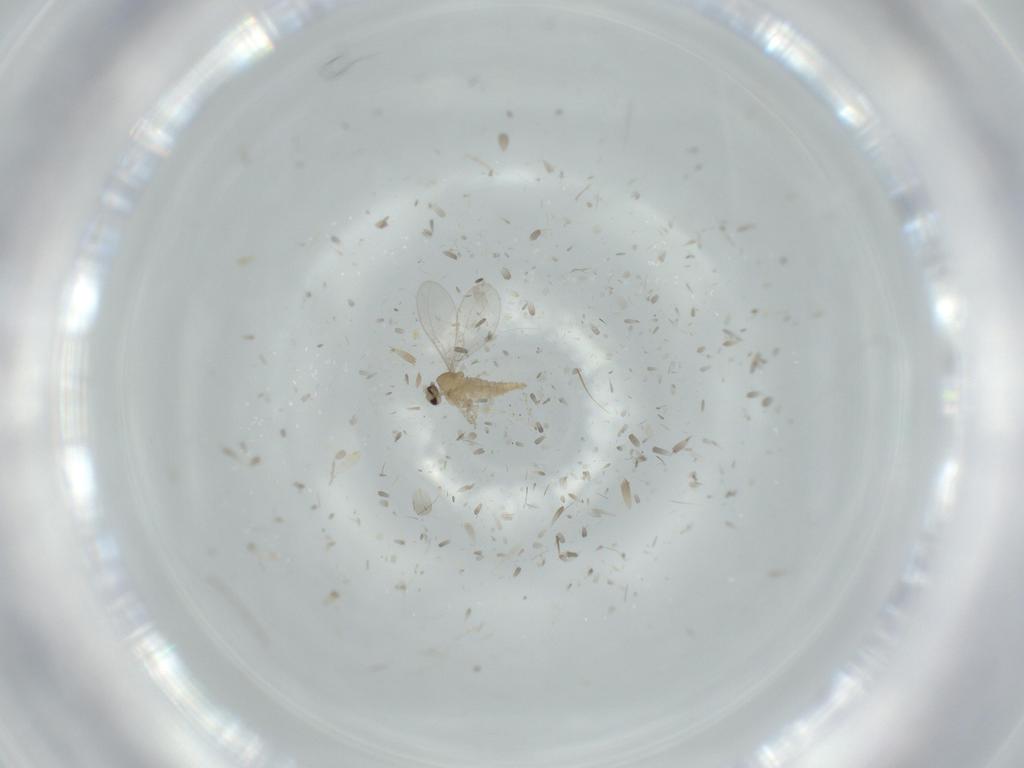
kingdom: Animalia
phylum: Arthropoda
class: Insecta
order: Diptera
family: Cecidomyiidae
